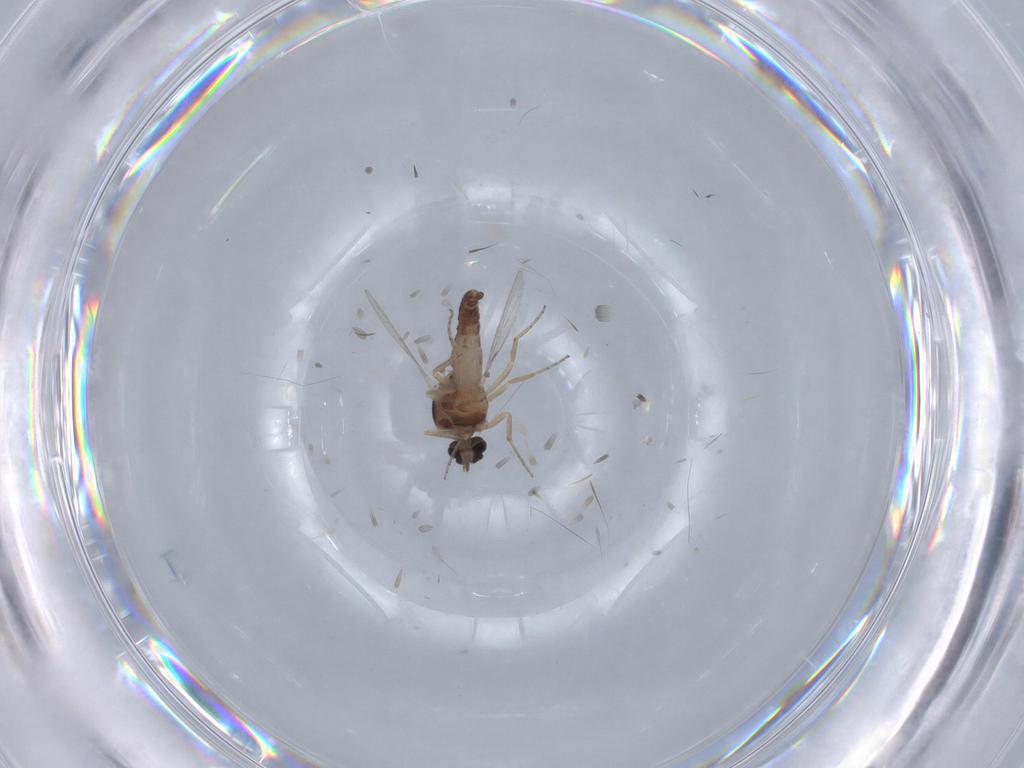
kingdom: Animalia
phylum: Arthropoda
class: Insecta
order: Diptera
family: Ceratopogonidae
